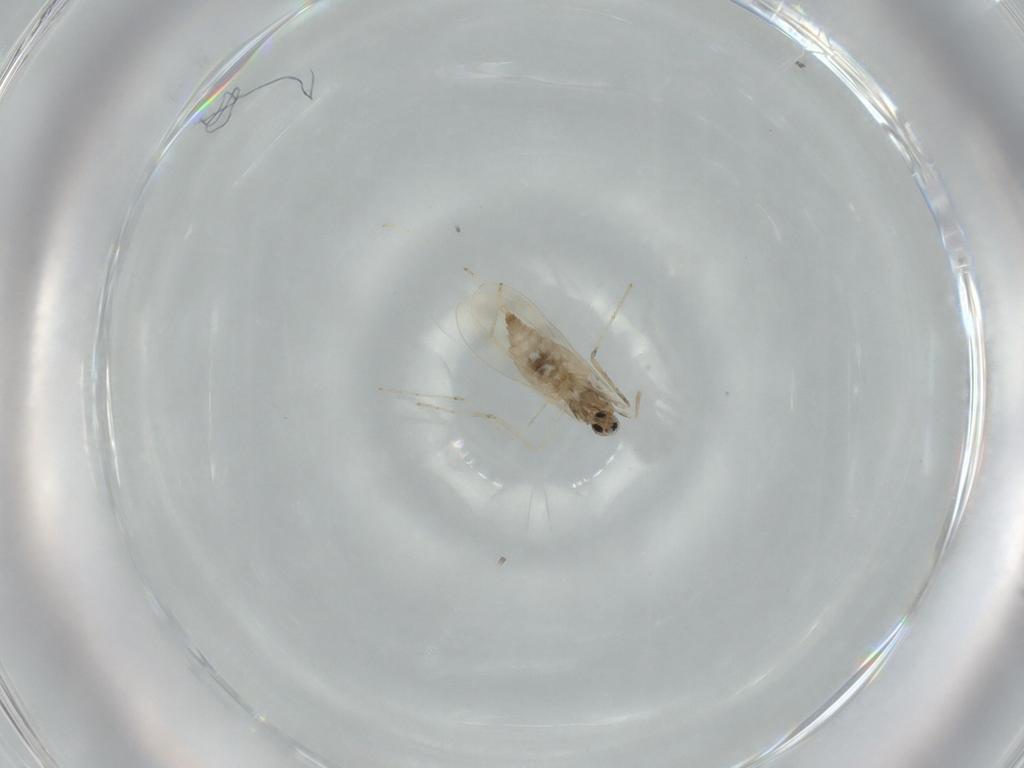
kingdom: Animalia
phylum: Arthropoda
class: Insecta
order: Diptera
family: Cecidomyiidae
